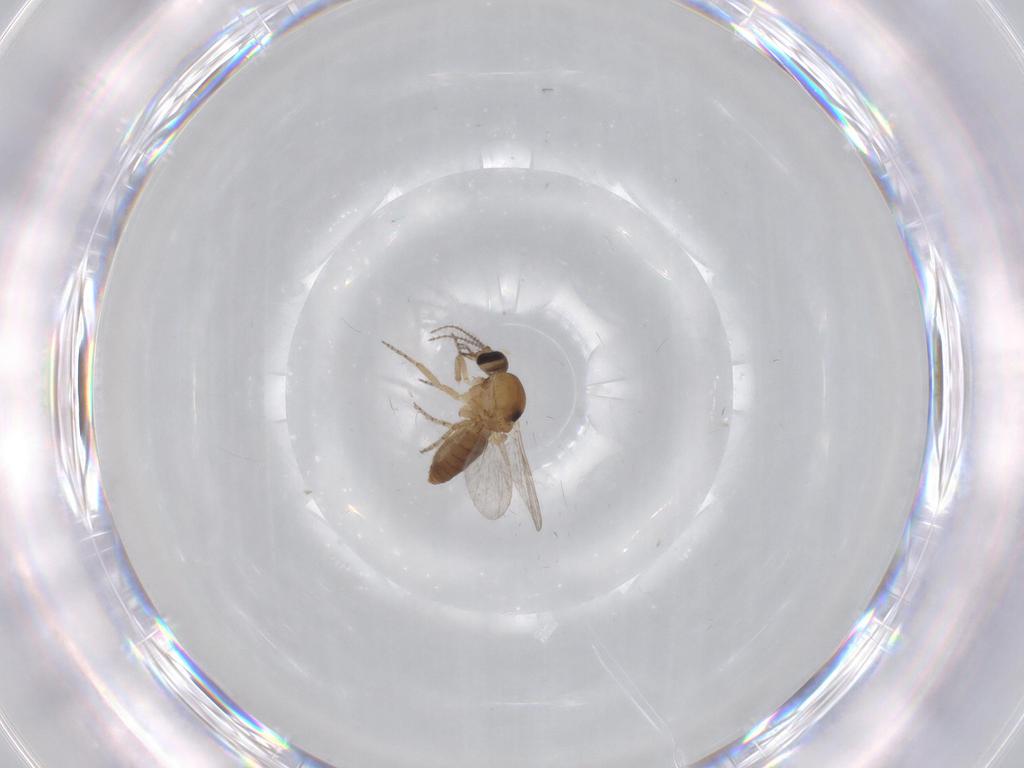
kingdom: Animalia
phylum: Arthropoda
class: Insecta
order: Diptera
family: Ceratopogonidae
